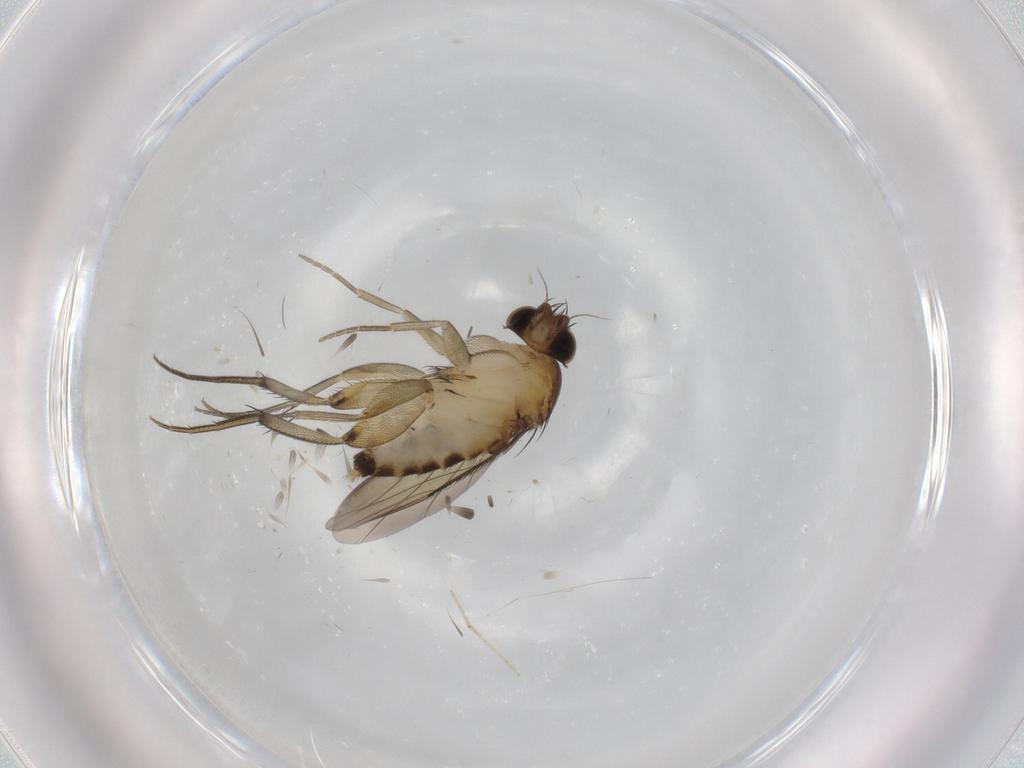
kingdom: Animalia
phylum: Arthropoda
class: Insecta
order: Diptera
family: Phoridae
